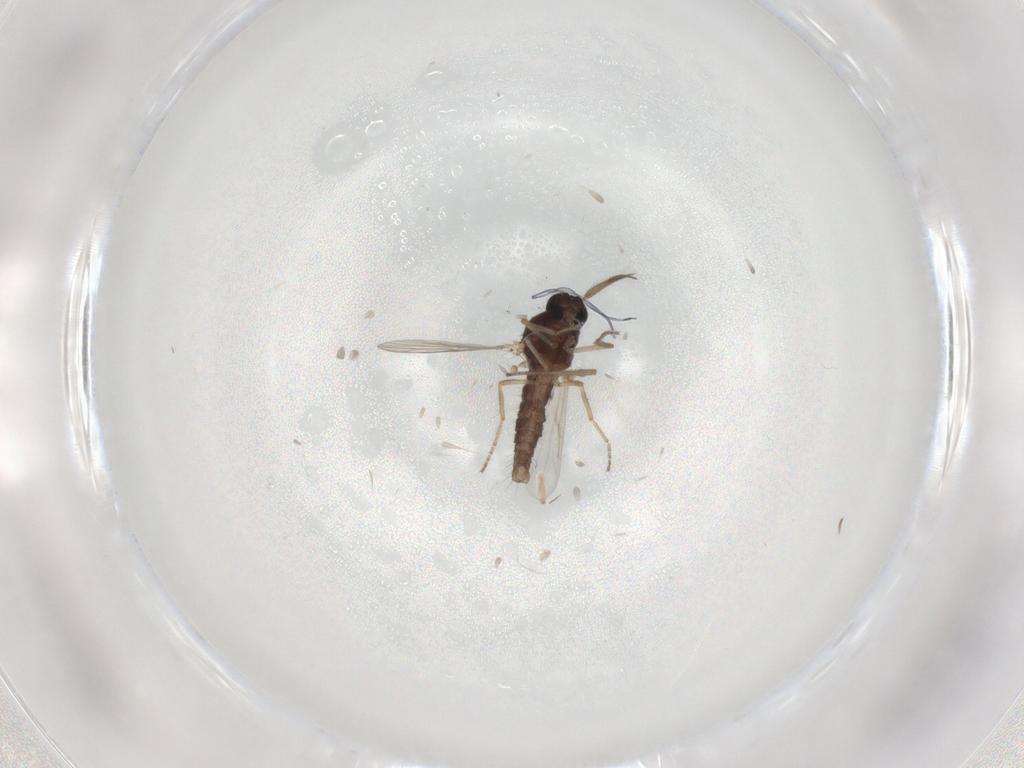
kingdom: Animalia
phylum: Arthropoda
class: Insecta
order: Diptera
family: Ceratopogonidae
